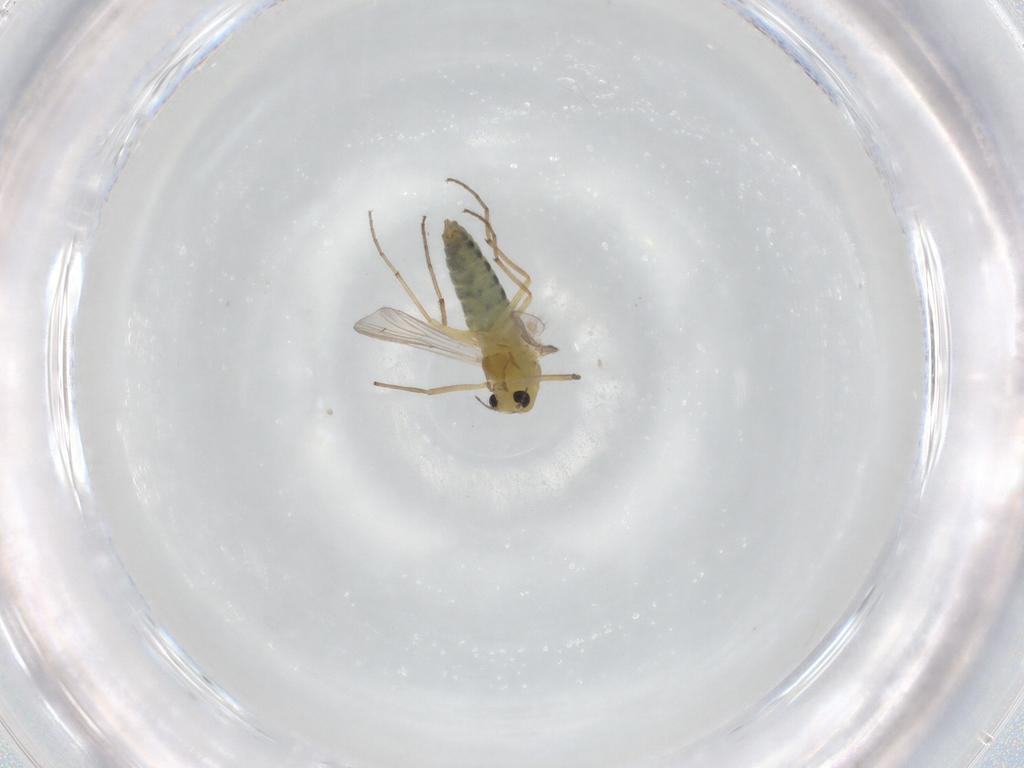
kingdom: Animalia
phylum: Arthropoda
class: Insecta
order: Diptera
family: Chironomidae
